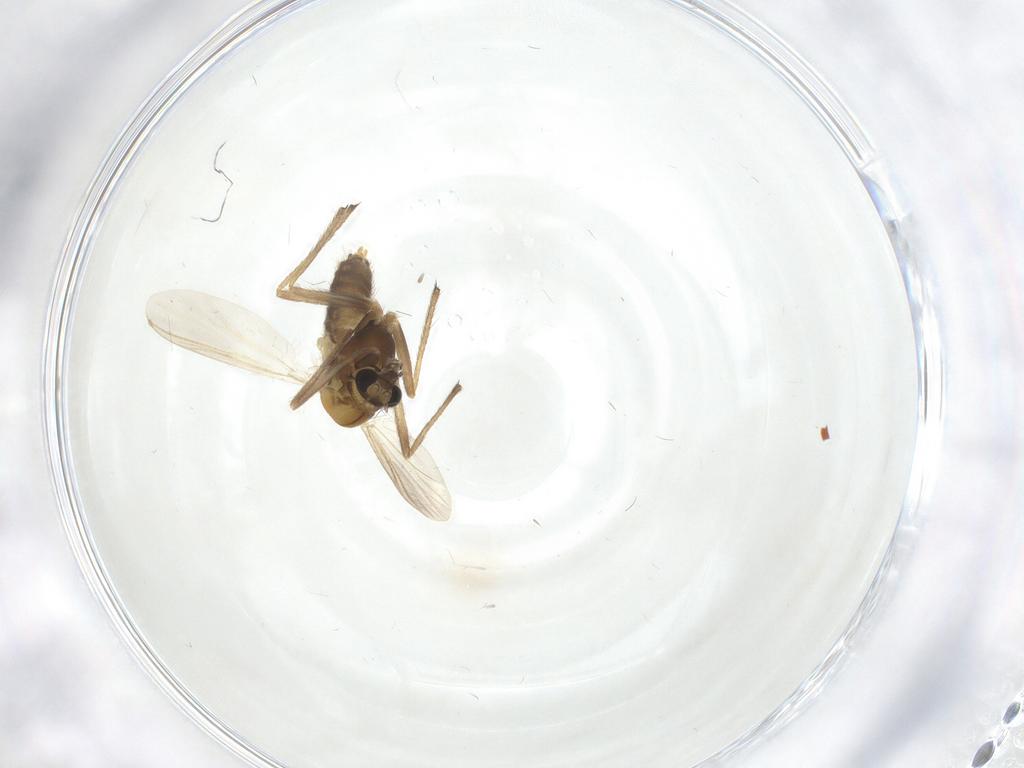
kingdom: Animalia
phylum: Arthropoda
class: Insecta
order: Diptera
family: Chironomidae
